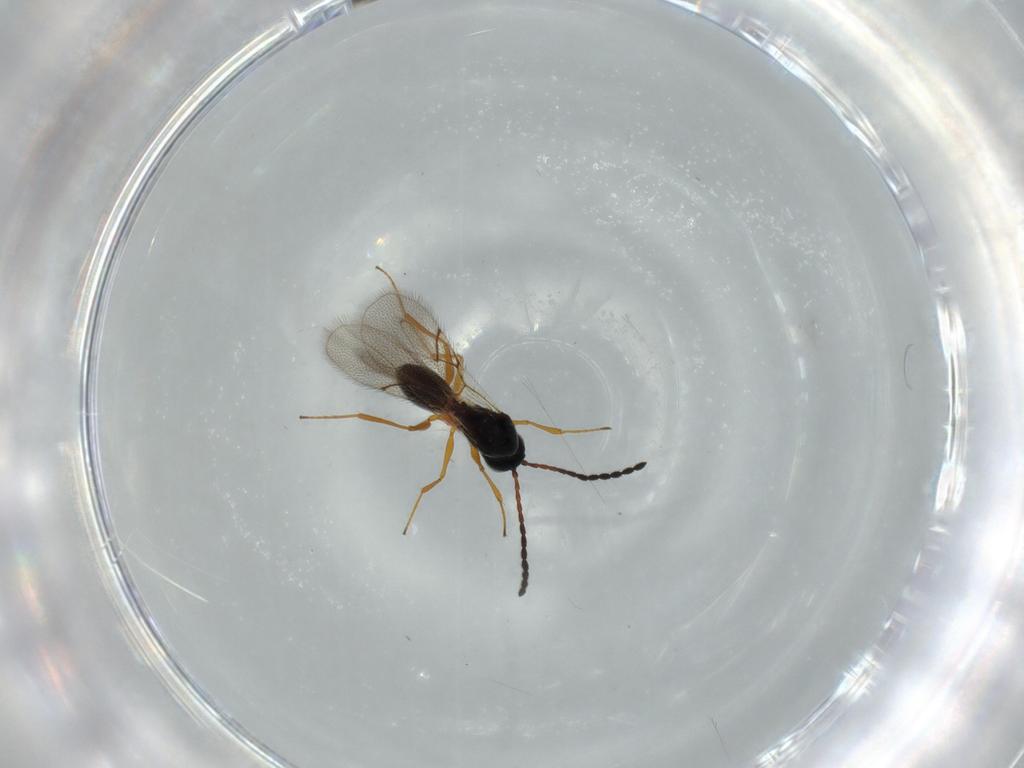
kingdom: Animalia
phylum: Arthropoda
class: Insecta
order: Hymenoptera
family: Figitidae
